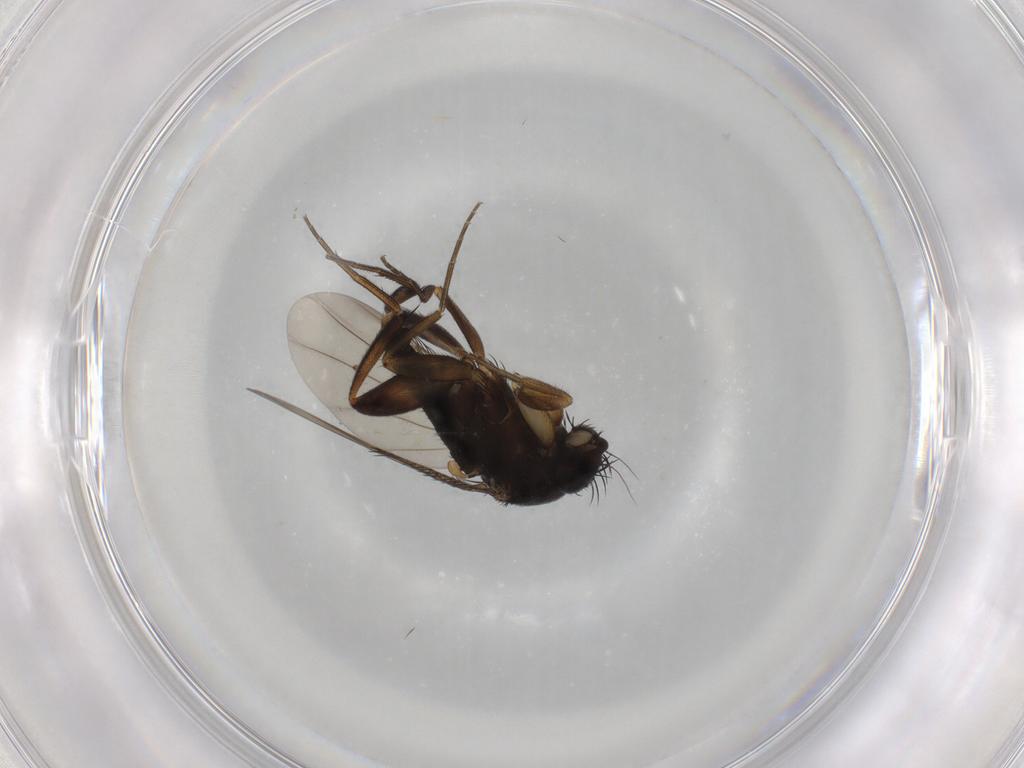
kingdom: Animalia
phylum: Arthropoda
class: Insecta
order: Diptera
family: Phoridae
